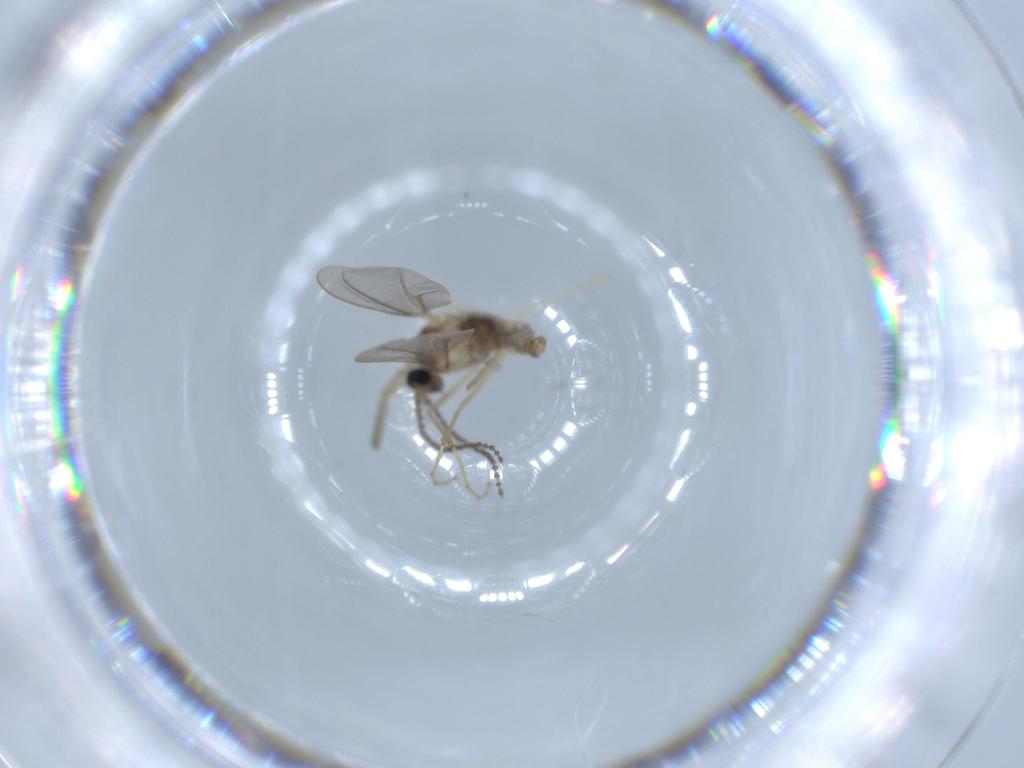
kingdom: Animalia
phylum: Arthropoda
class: Insecta
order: Diptera
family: Keroplatidae
